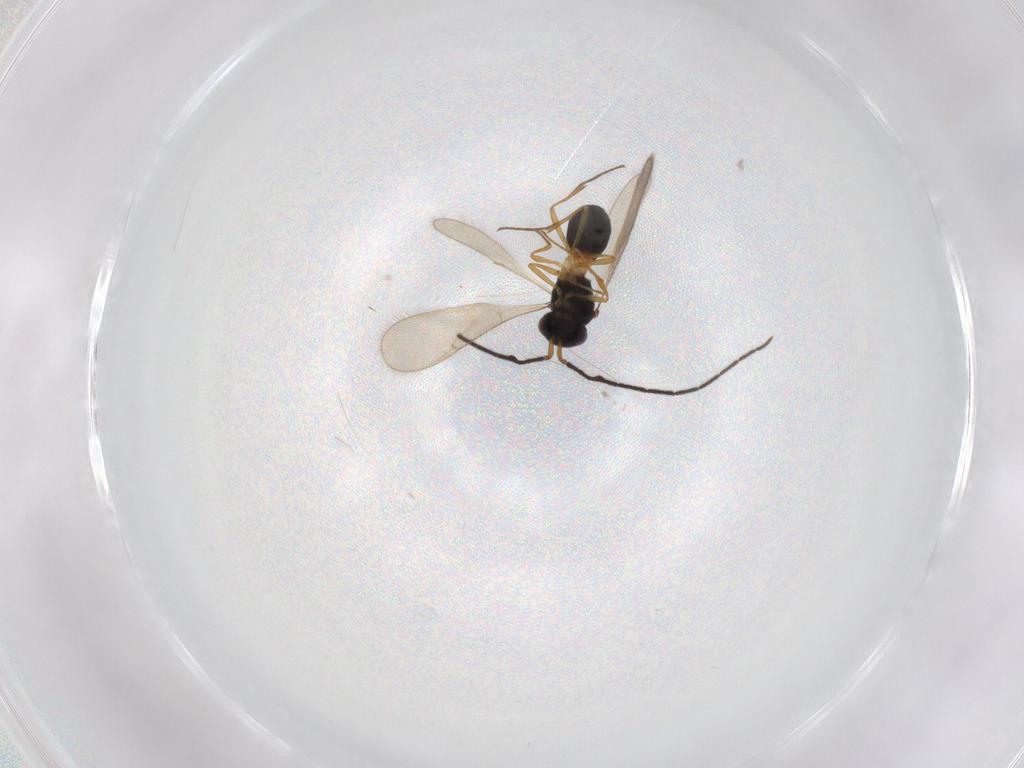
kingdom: Animalia
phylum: Arthropoda
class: Insecta
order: Hymenoptera
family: Scelionidae
